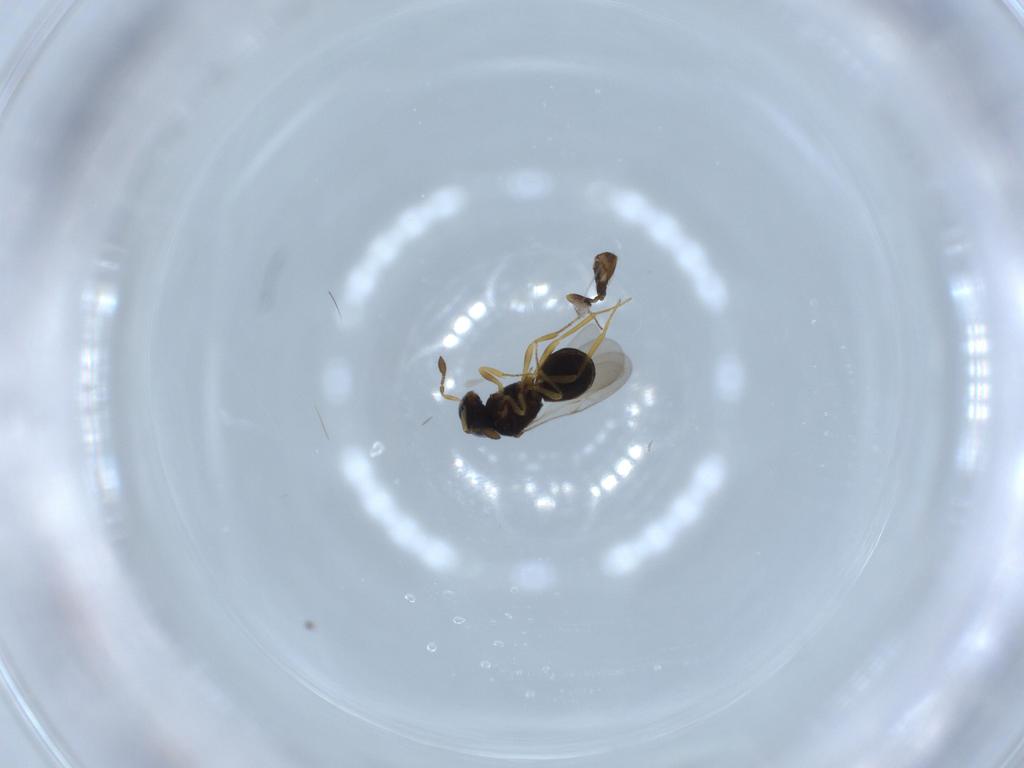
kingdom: Animalia
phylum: Arthropoda
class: Insecta
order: Hymenoptera
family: Scelionidae
